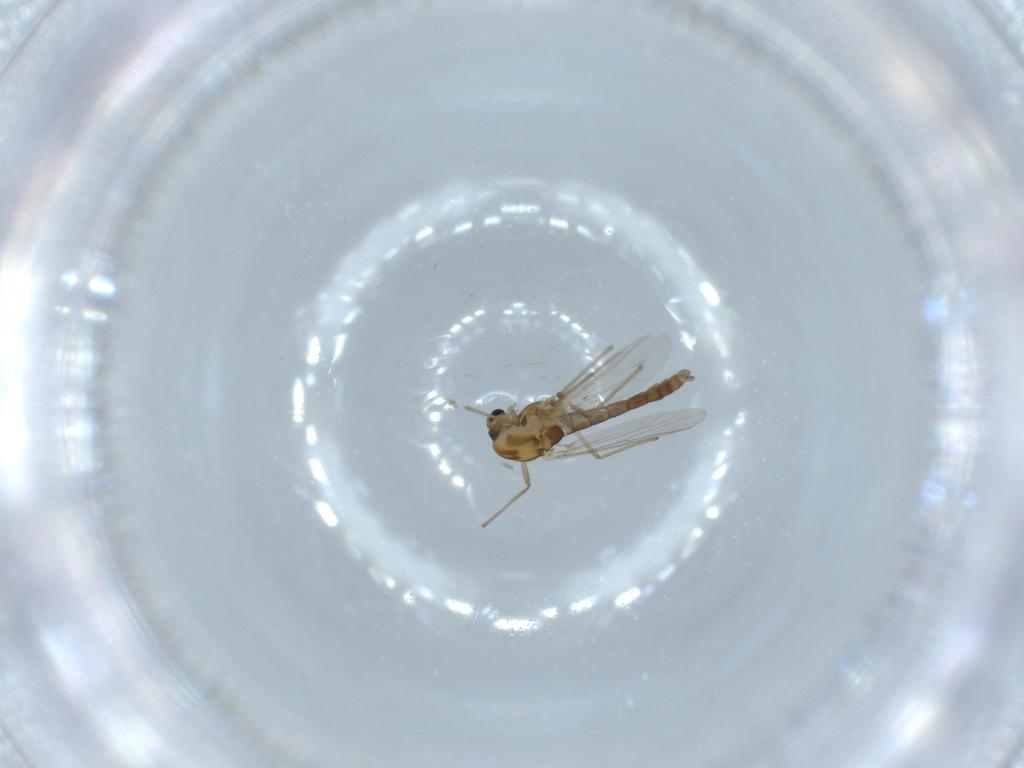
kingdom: Animalia
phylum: Arthropoda
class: Insecta
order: Diptera
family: Chironomidae
